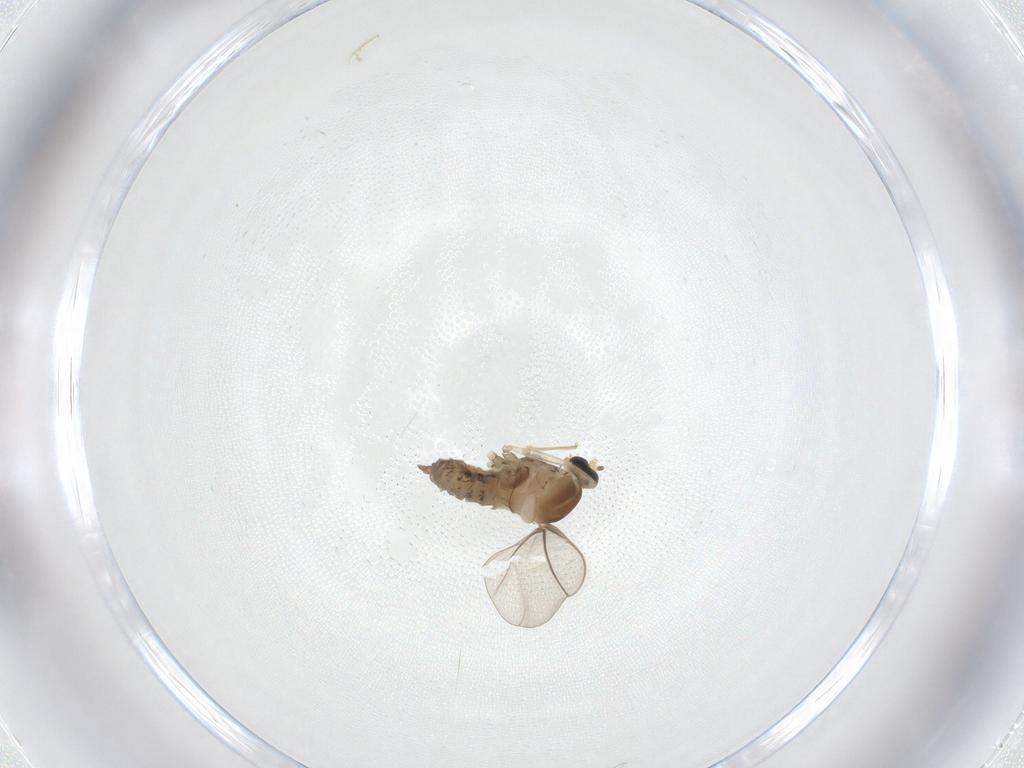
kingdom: Animalia
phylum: Arthropoda
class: Insecta
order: Diptera
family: Cecidomyiidae
